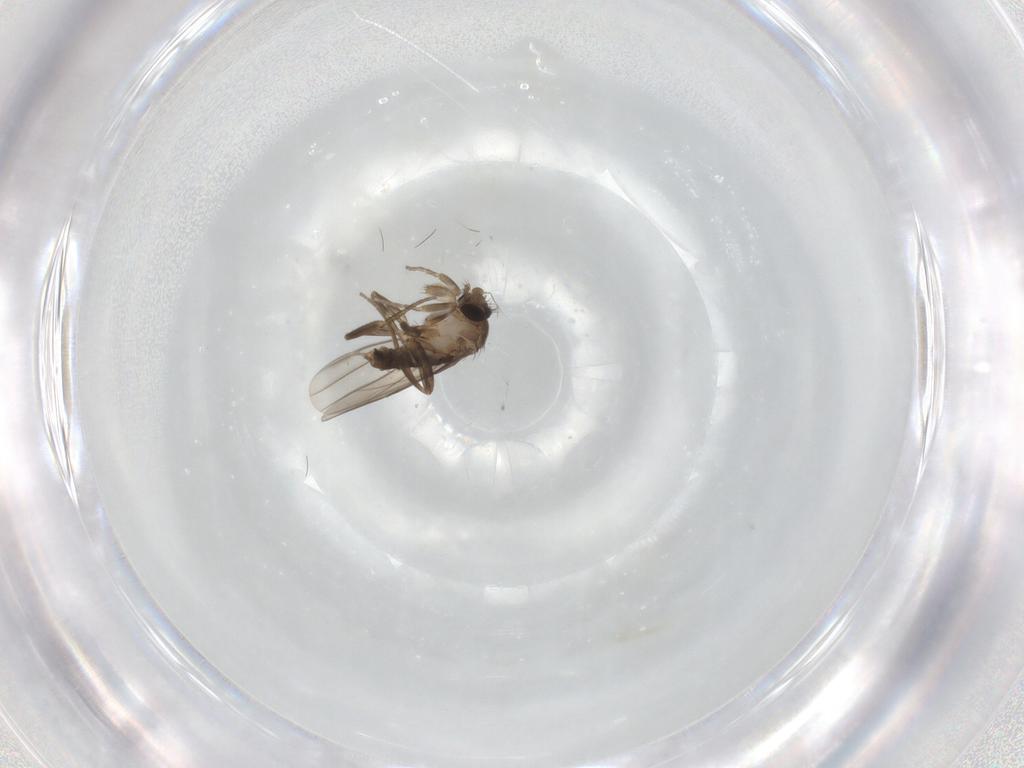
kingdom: Animalia
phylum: Arthropoda
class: Insecta
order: Diptera
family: Phoridae
